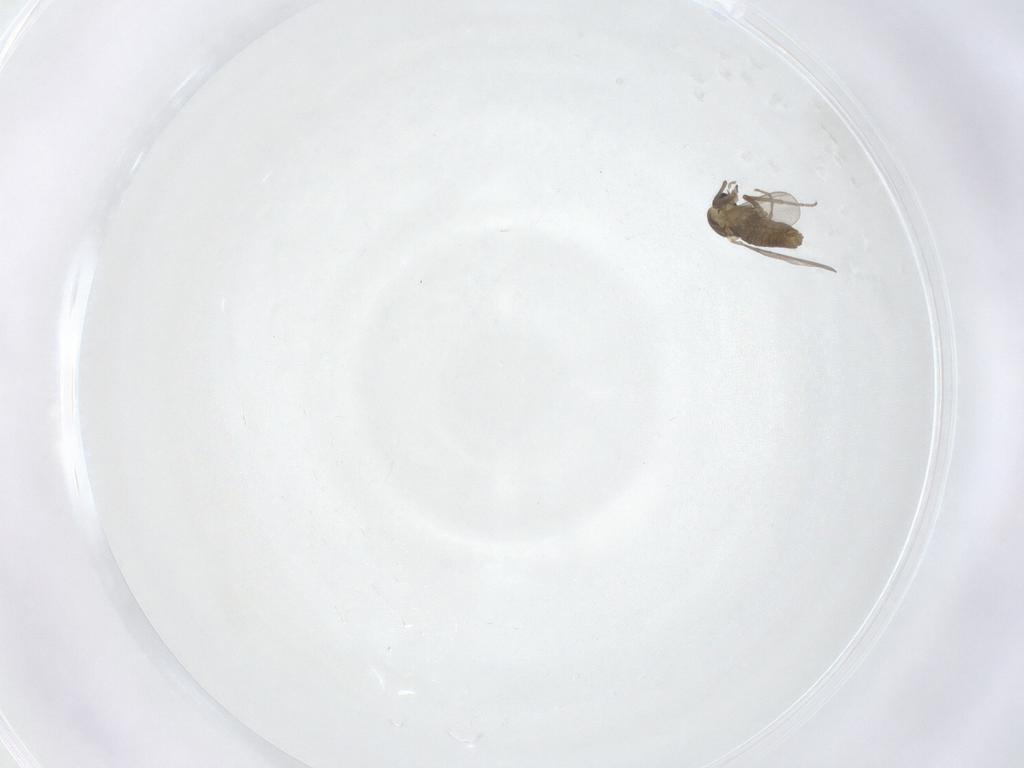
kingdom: Animalia
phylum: Arthropoda
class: Insecta
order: Diptera
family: Chironomidae
